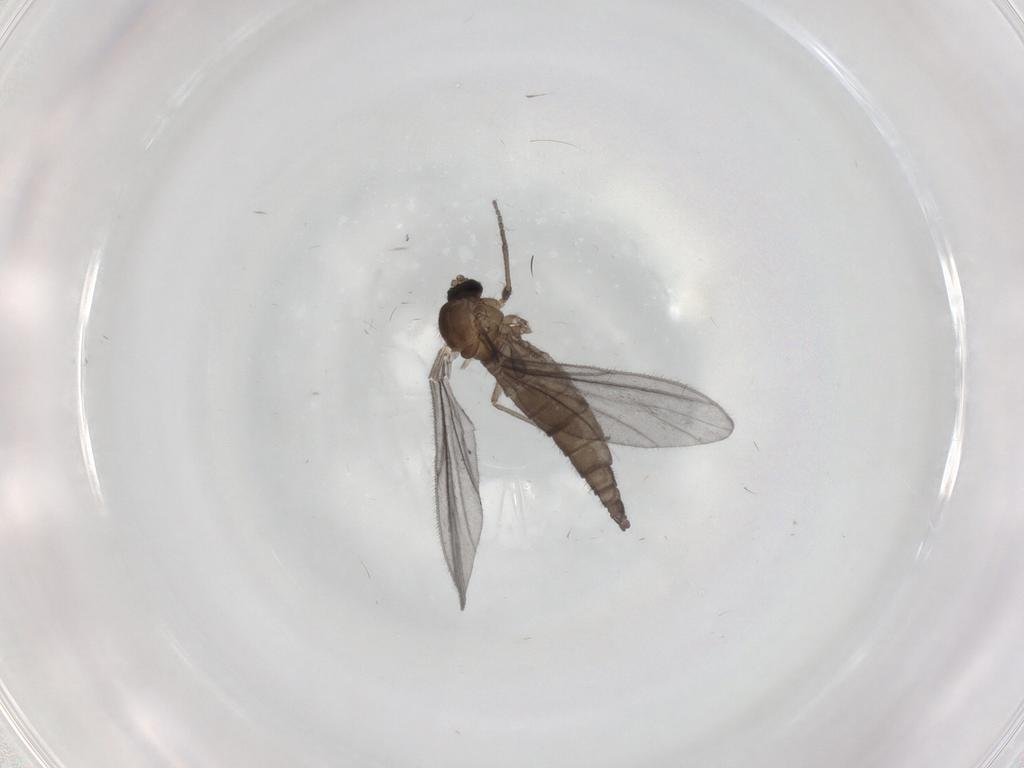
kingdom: Animalia
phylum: Arthropoda
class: Insecta
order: Diptera
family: Sciaridae
